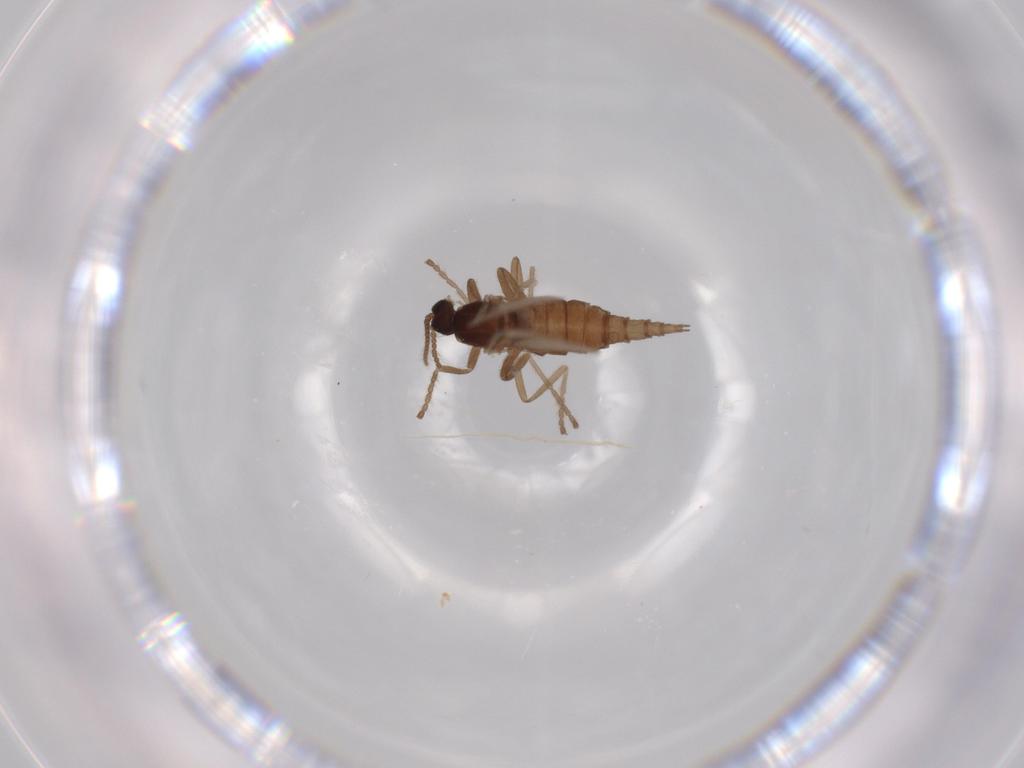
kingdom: Animalia
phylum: Arthropoda
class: Insecta
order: Diptera
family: Cecidomyiidae
